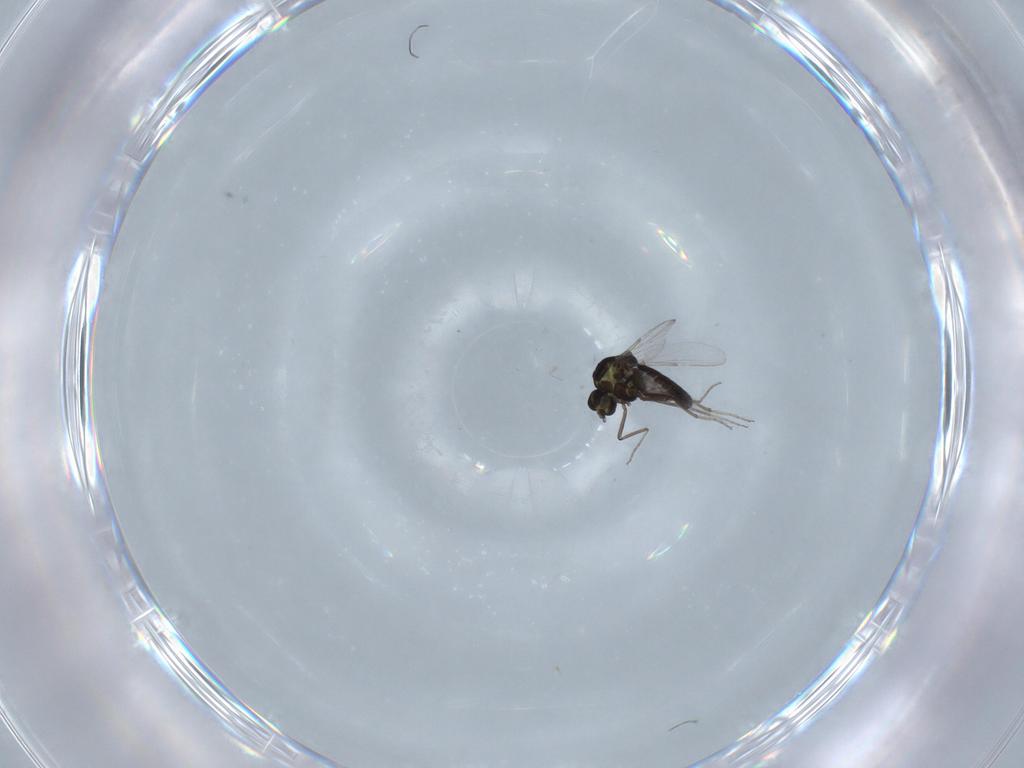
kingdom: Animalia
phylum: Arthropoda
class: Insecta
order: Diptera
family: Ceratopogonidae
